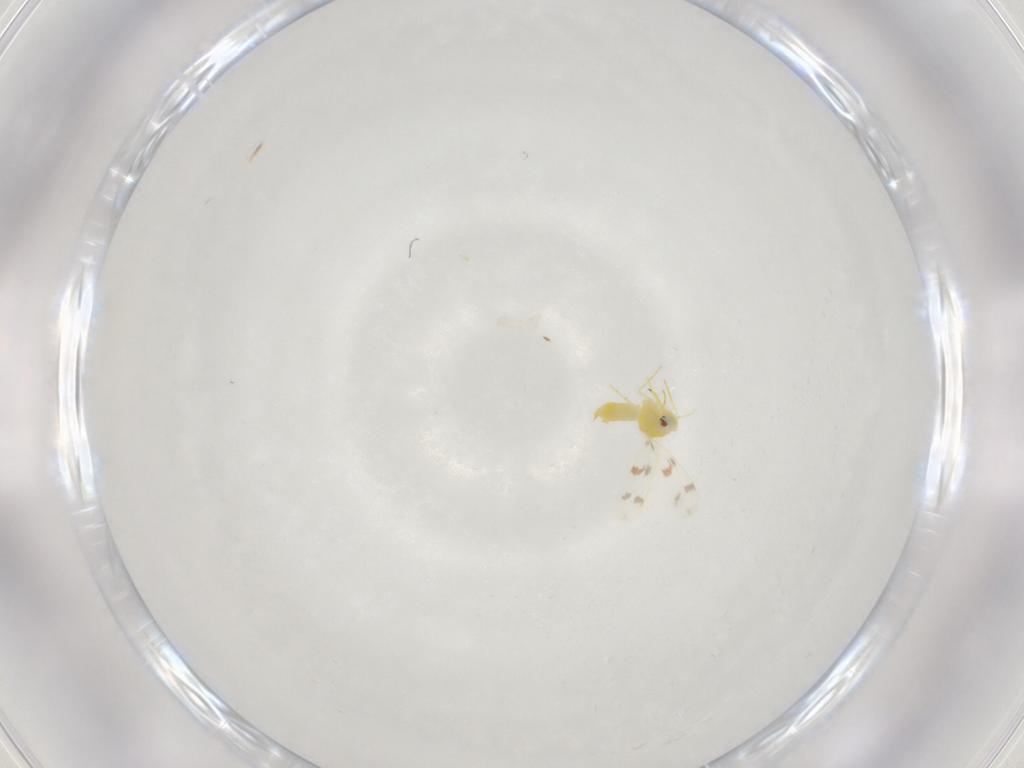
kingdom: Animalia
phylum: Arthropoda
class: Insecta
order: Hemiptera
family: Aleyrodidae
